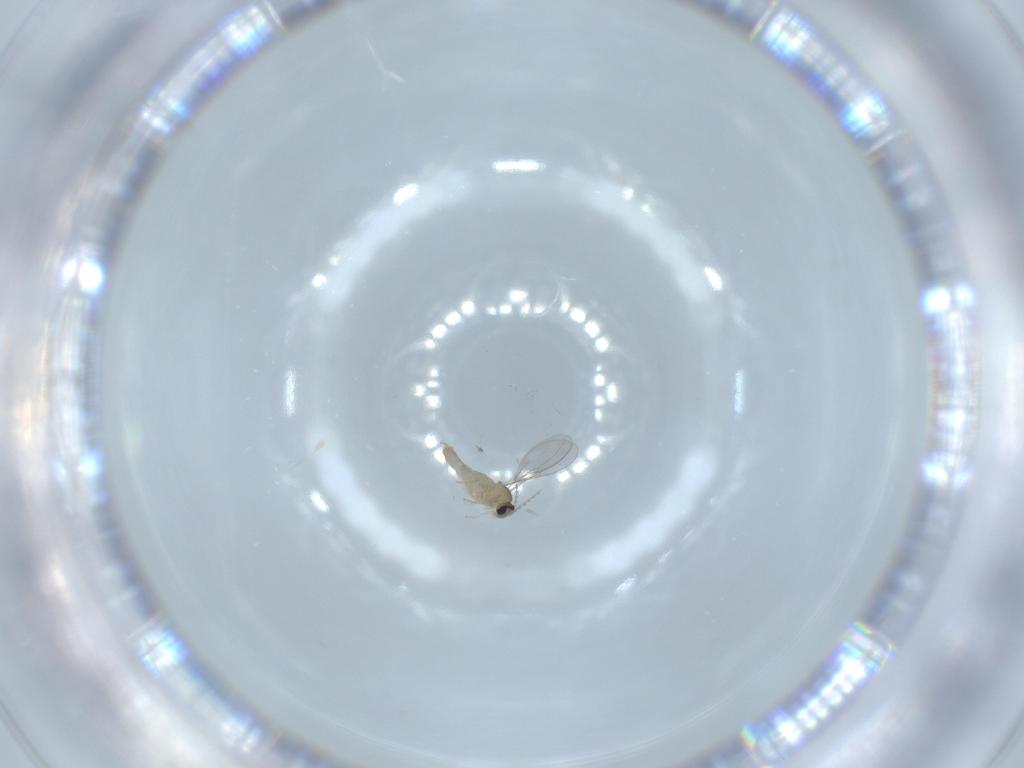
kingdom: Animalia
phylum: Arthropoda
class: Insecta
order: Diptera
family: Cecidomyiidae
